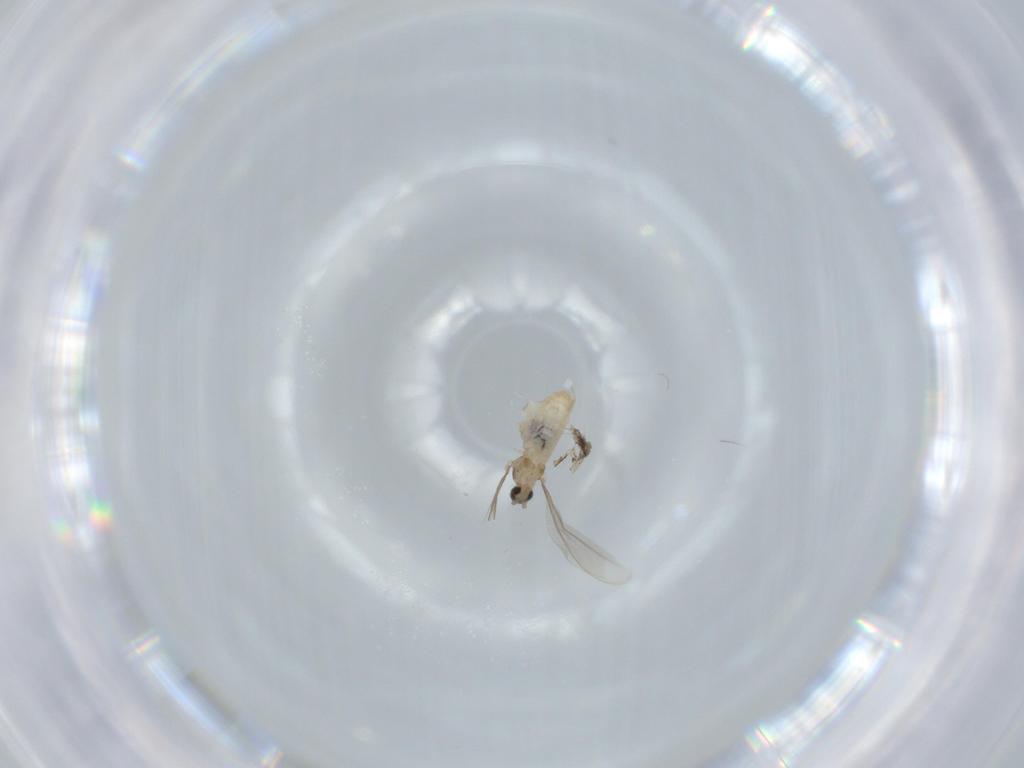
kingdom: Animalia
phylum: Arthropoda
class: Insecta
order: Diptera
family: Cecidomyiidae
